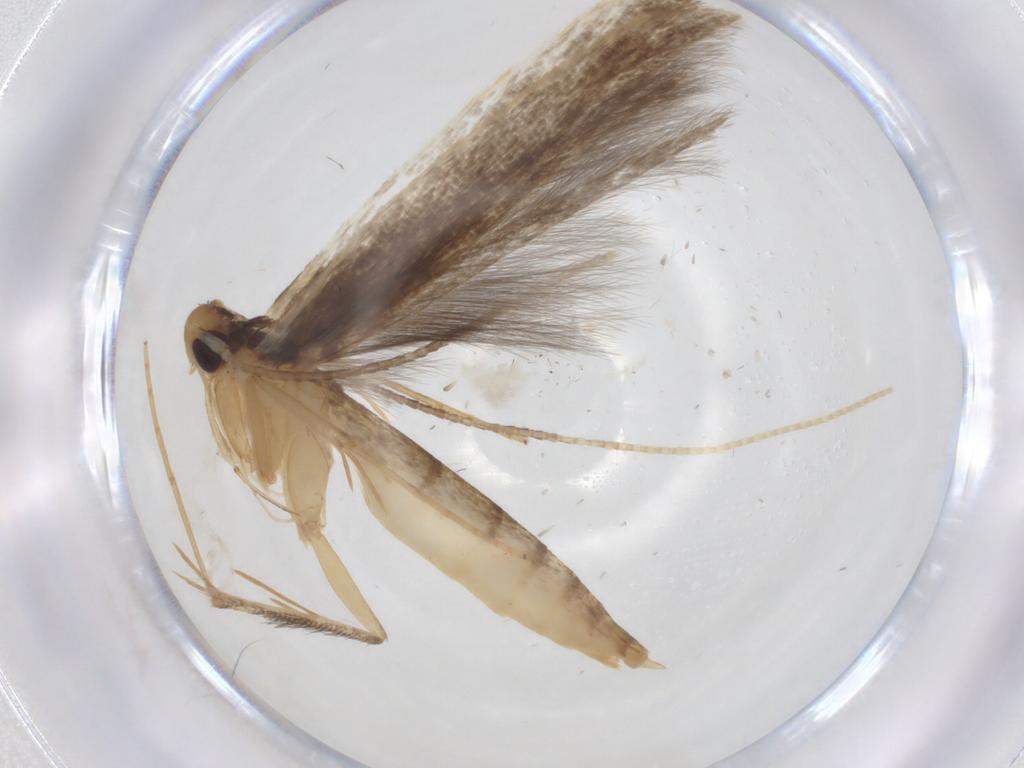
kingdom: Animalia
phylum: Arthropoda
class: Insecta
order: Lepidoptera
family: Pterolonchidae
